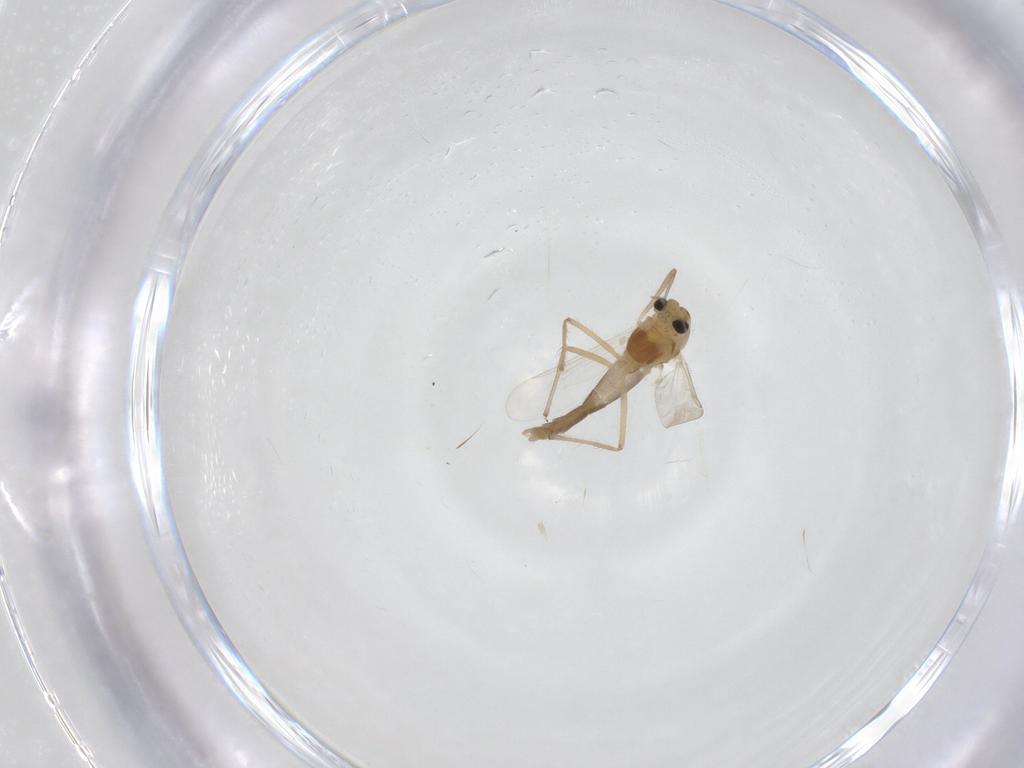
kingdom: Animalia
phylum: Arthropoda
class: Insecta
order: Diptera
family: Chironomidae
